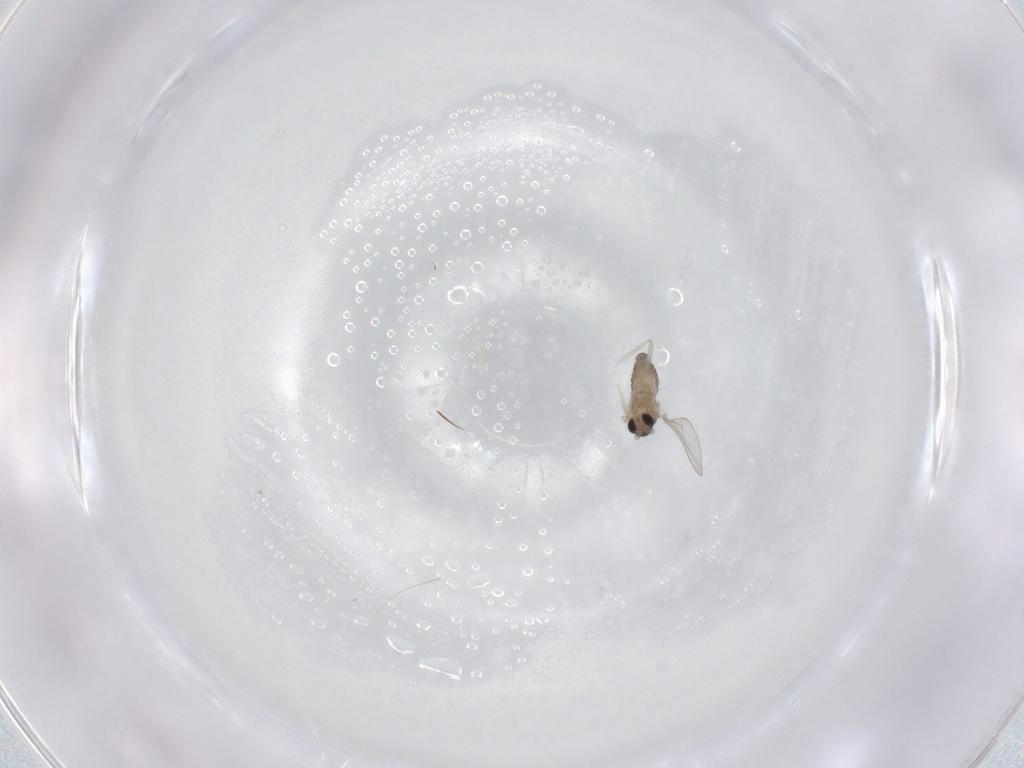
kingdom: Animalia
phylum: Arthropoda
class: Insecta
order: Diptera
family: Cecidomyiidae
